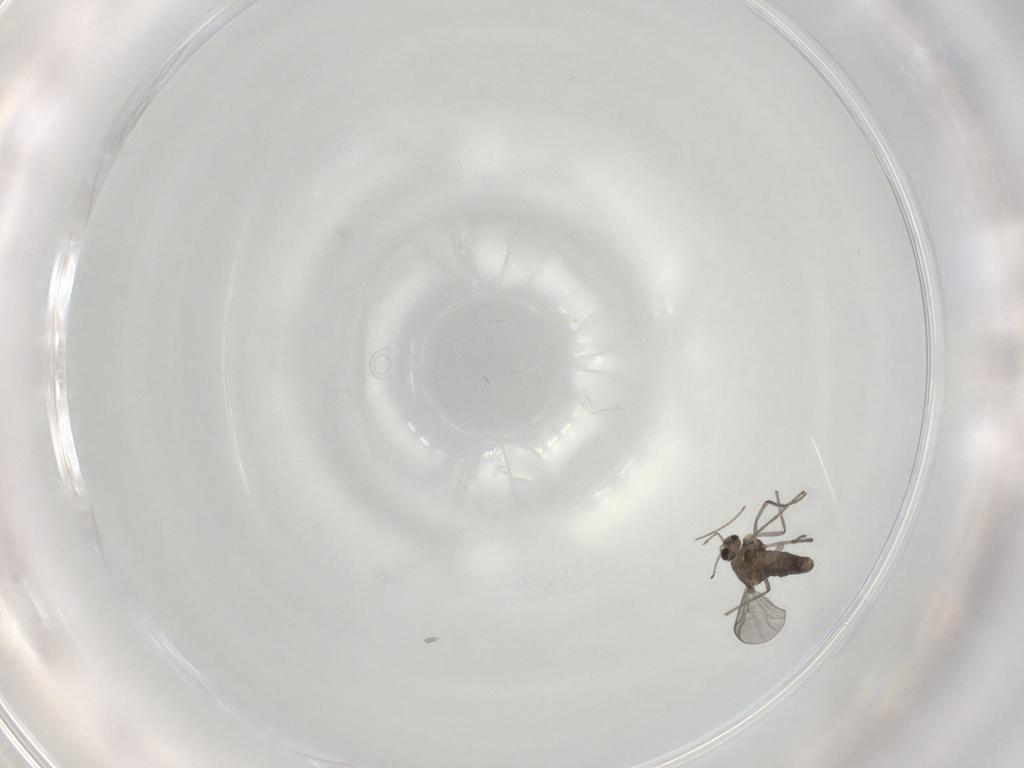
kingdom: Animalia
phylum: Arthropoda
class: Insecta
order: Diptera
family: Chironomidae
